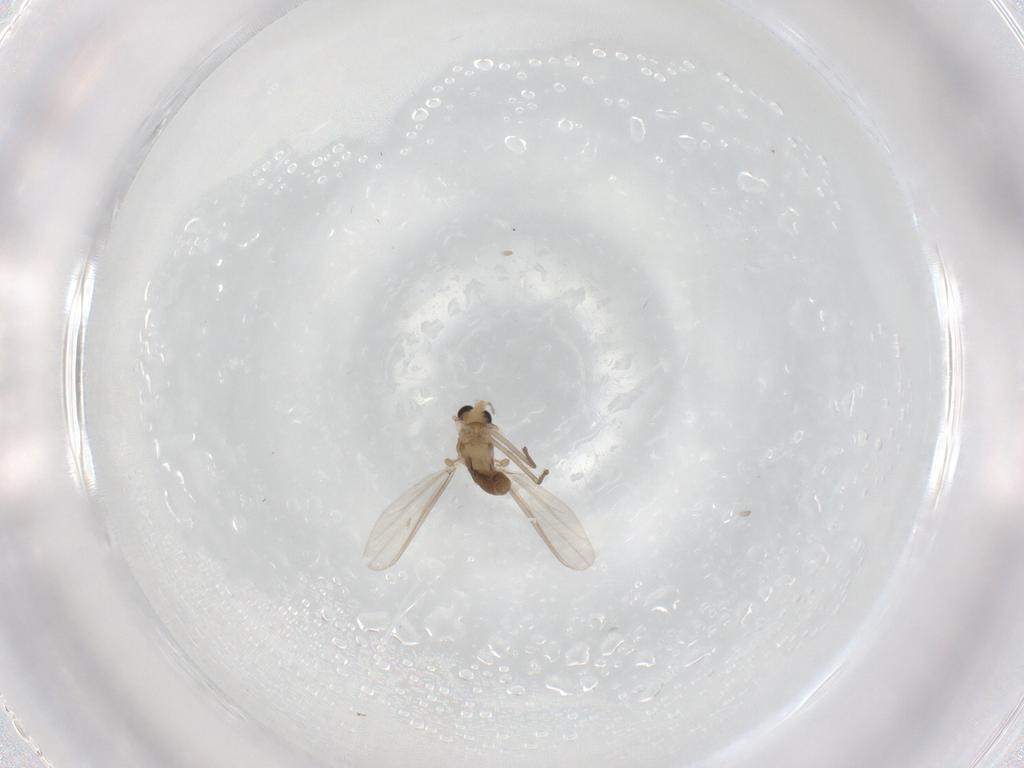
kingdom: Animalia
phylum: Arthropoda
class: Insecta
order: Diptera
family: Chironomidae
